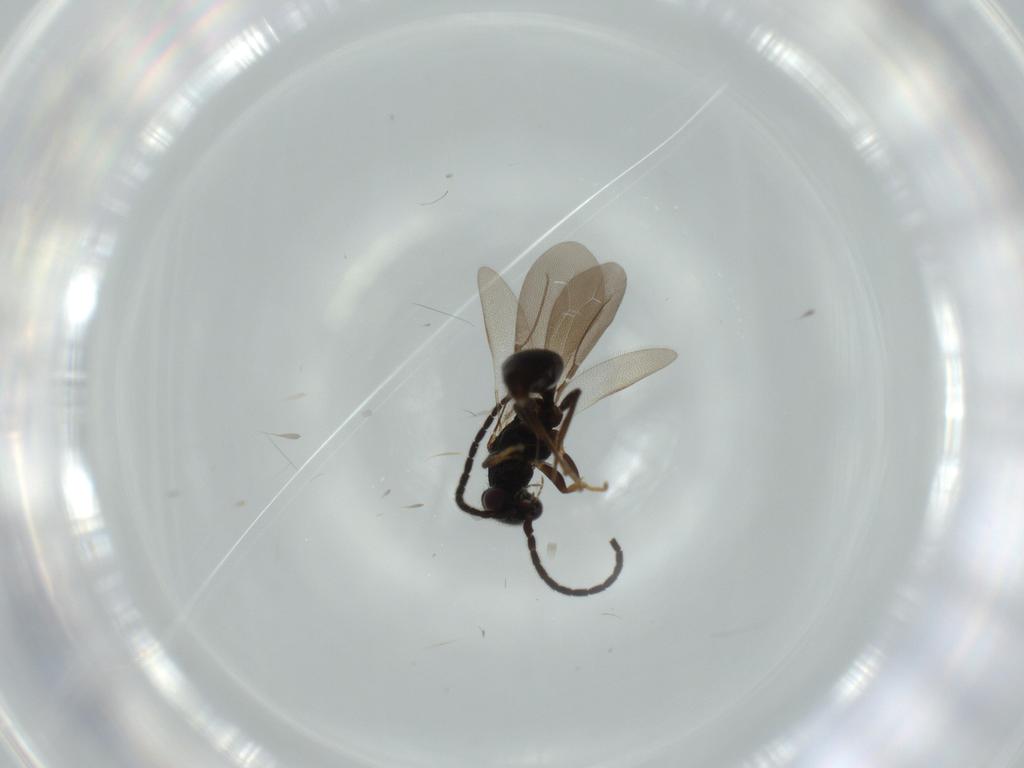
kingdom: Animalia
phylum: Arthropoda
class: Insecta
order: Hymenoptera
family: Bethylidae
